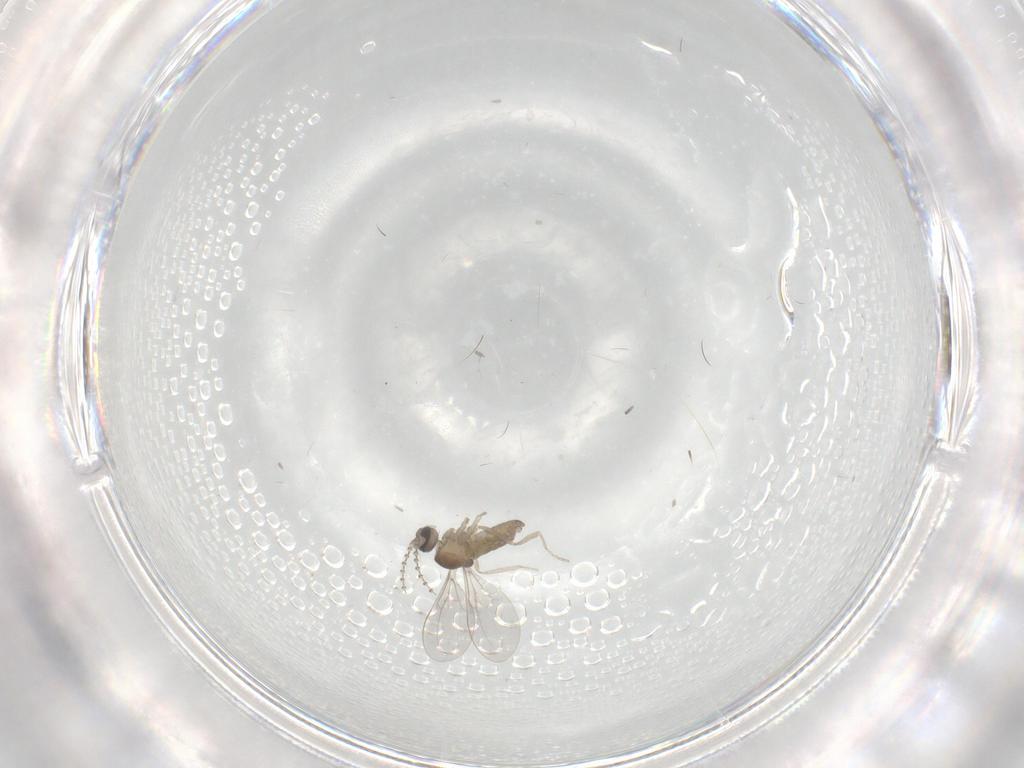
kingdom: Animalia
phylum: Arthropoda
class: Insecta
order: Diptera
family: Cecidomyiidae
